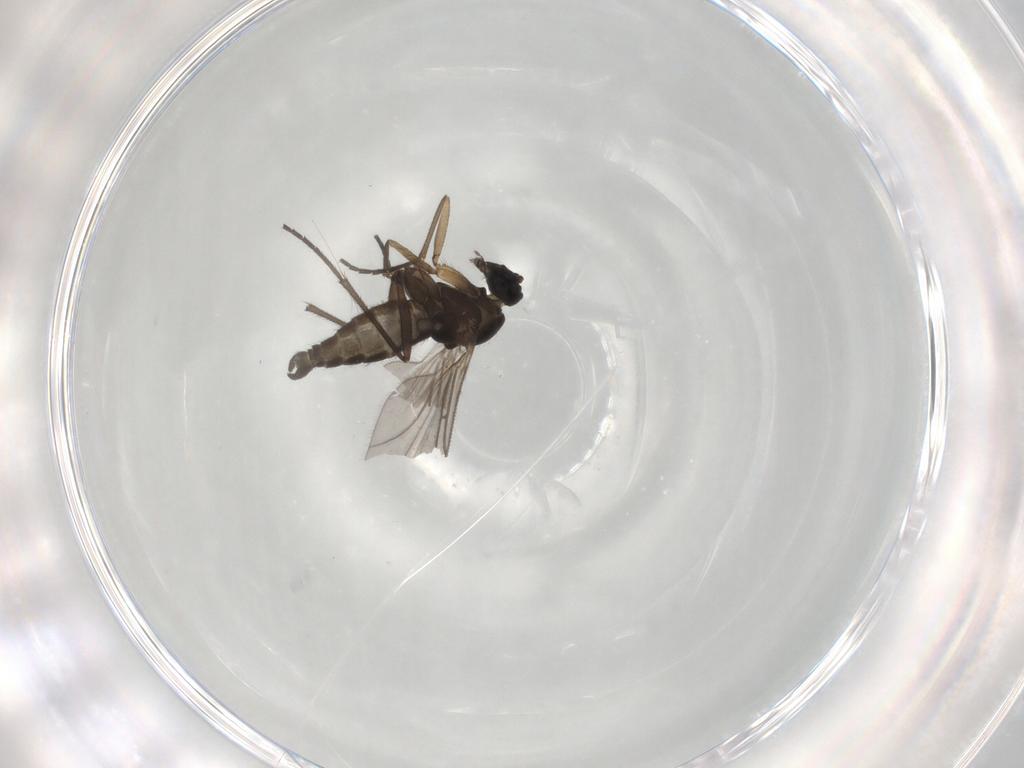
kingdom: Animalia
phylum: Arthropoda
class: Insecta
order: Diptera
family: Sciaridae
